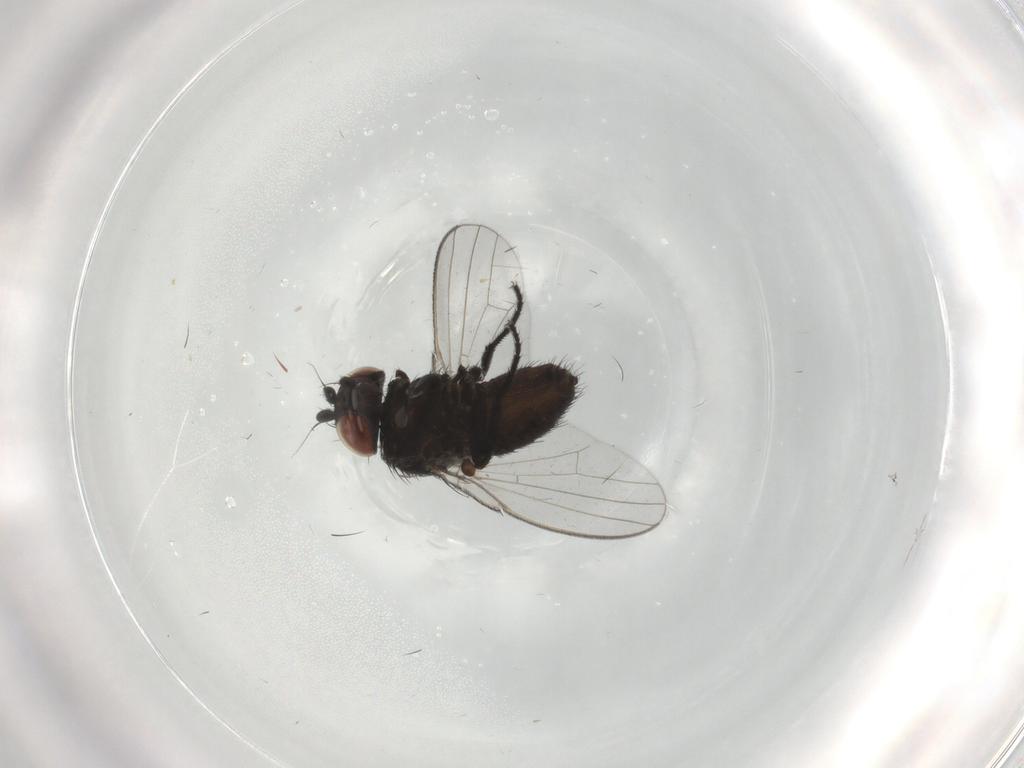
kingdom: Animalia
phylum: Arthropoda
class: Insecta
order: Diptera
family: Milichiidae
